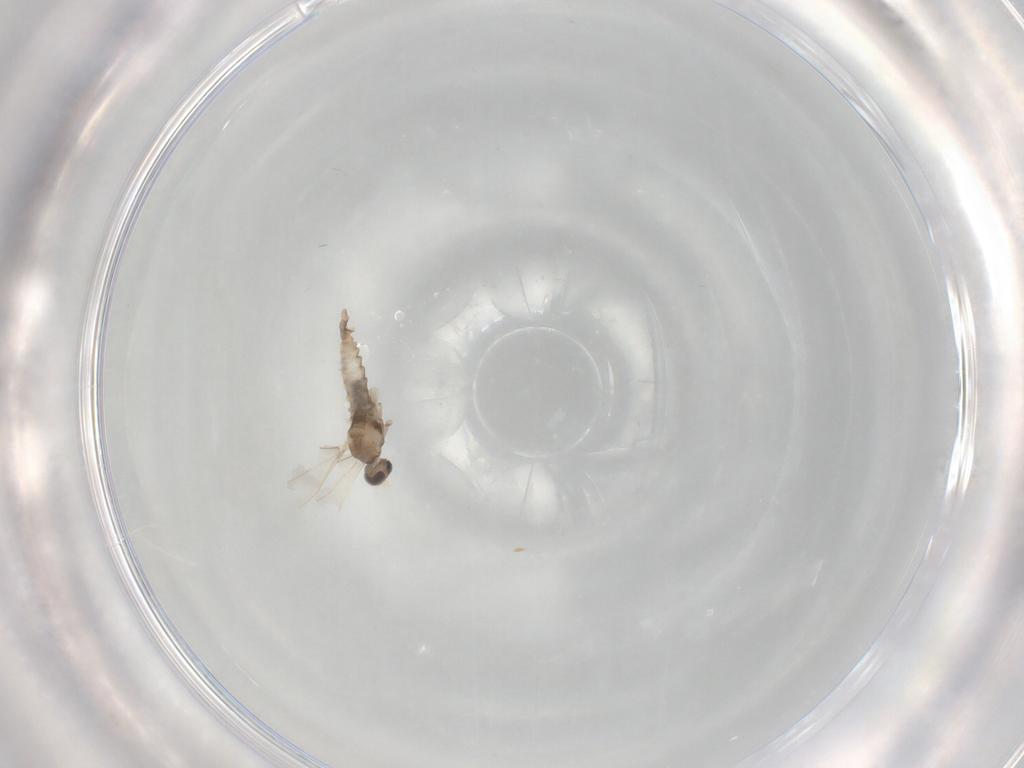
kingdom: Animalia
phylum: Arthropoda
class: Insecta
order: Diptera
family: Cecidomyiidae
